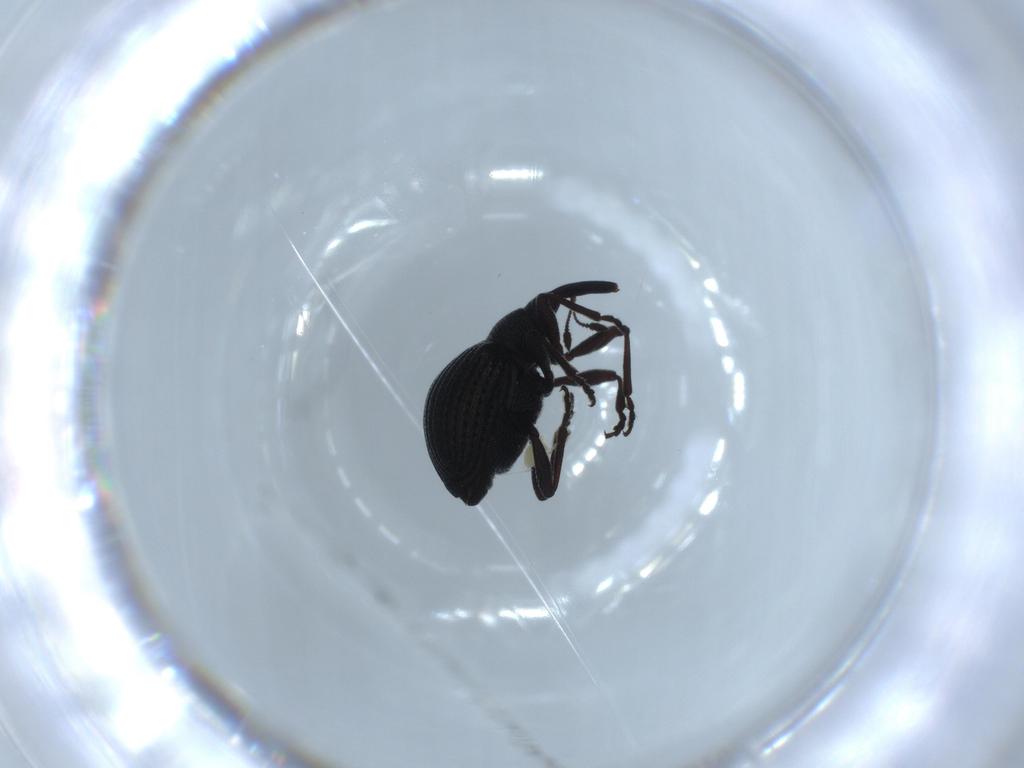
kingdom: Animalia
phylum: Arthropoda
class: Insecta
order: Coleoptera
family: Brentidae
